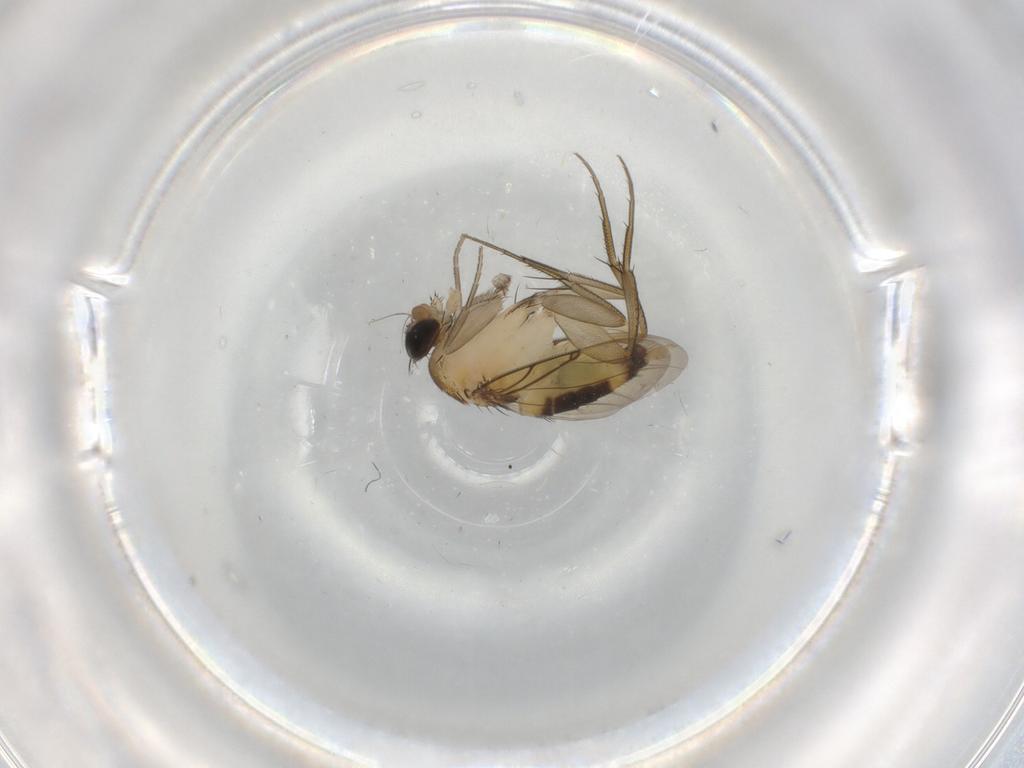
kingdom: Animalia
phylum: Arthropoda
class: Insecta
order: Diptera
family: Phoridae
